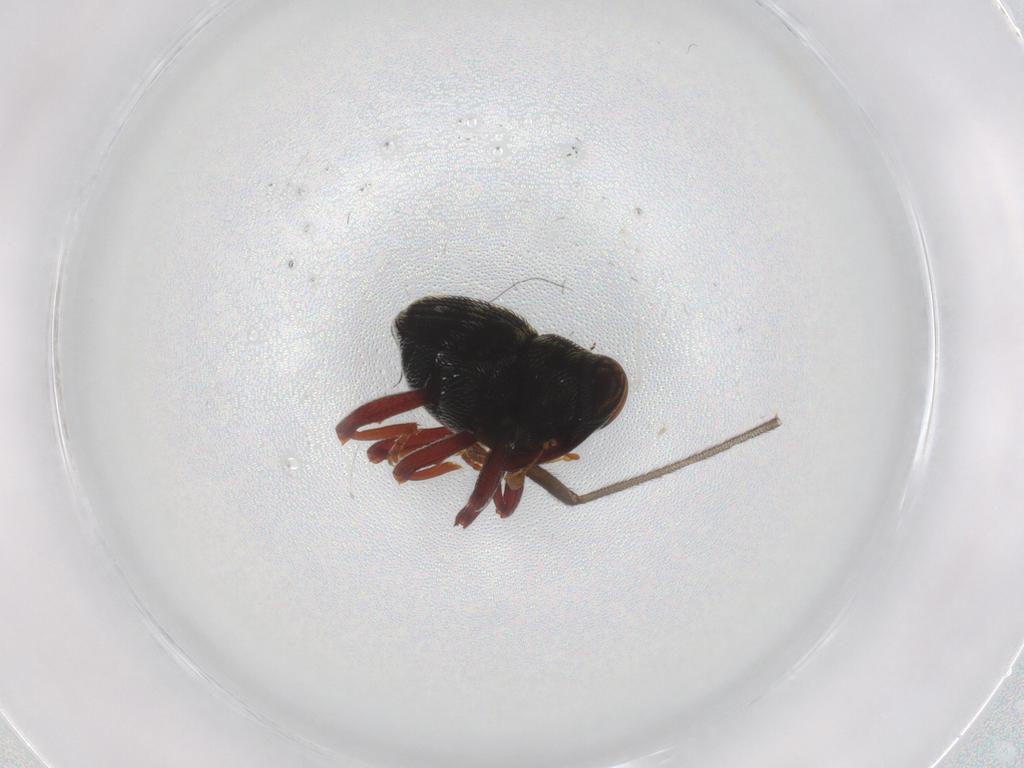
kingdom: Animalia
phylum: Arthropoda
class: Insecta
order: Coleoptera
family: Curculionidae
